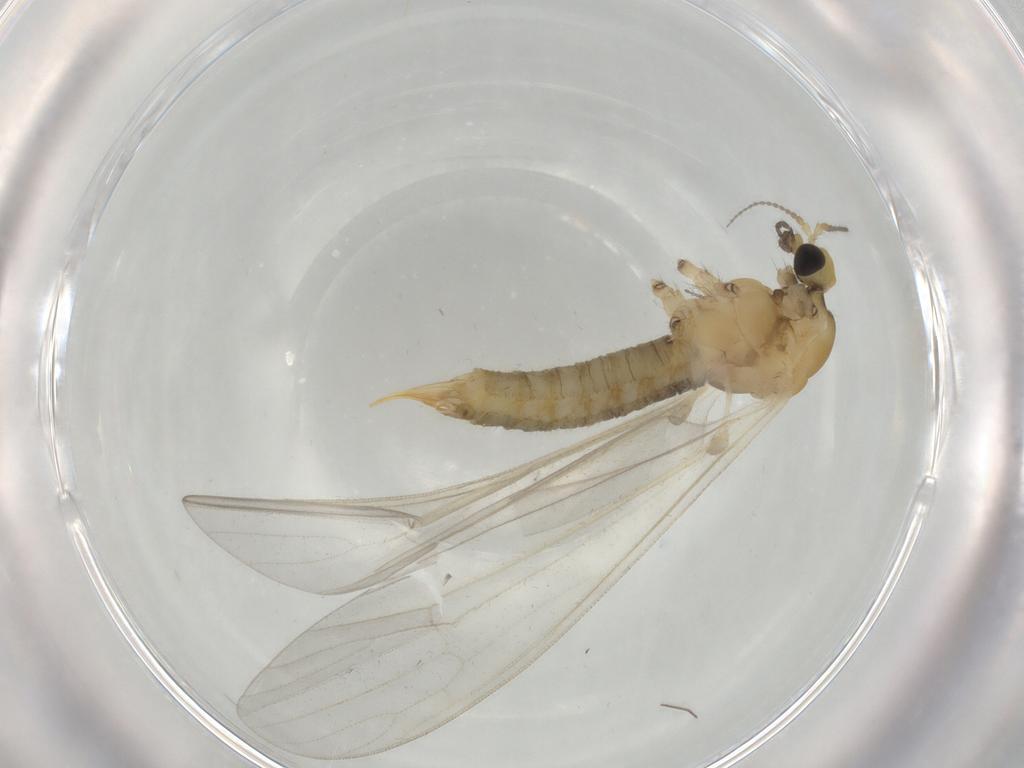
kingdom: Animalia
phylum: Arthropoda
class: Insecta
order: Diptera
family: Limoniidae
